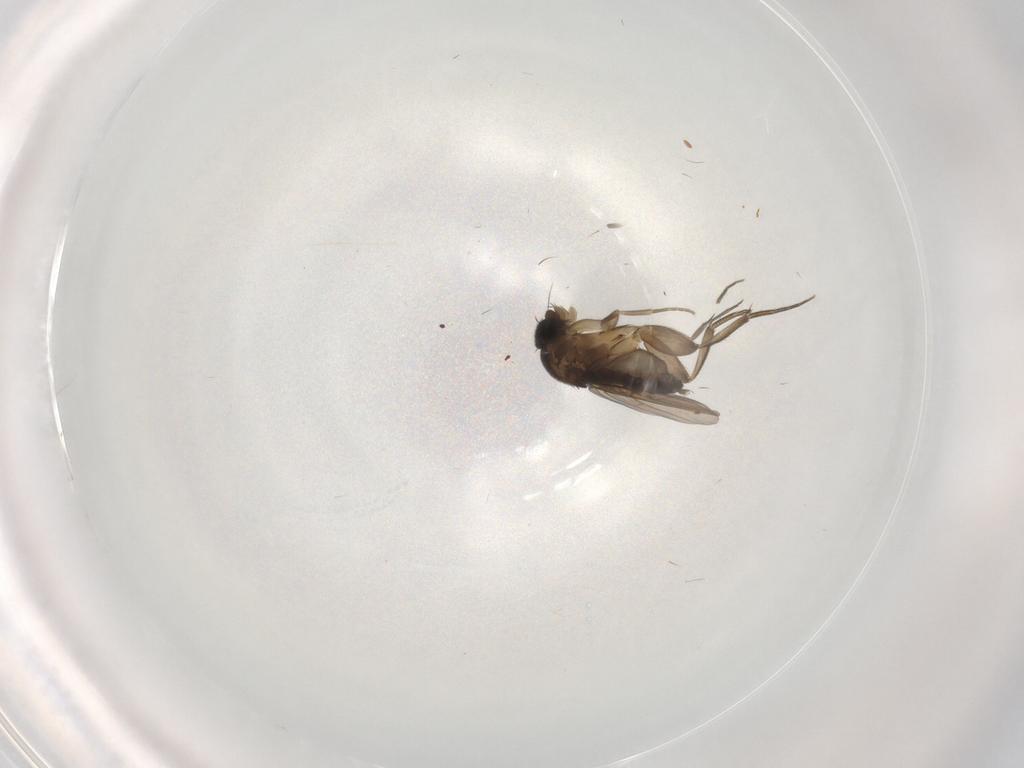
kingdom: Animalia
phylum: Arthropoda
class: Insecta
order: Diptera
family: Phoridae
